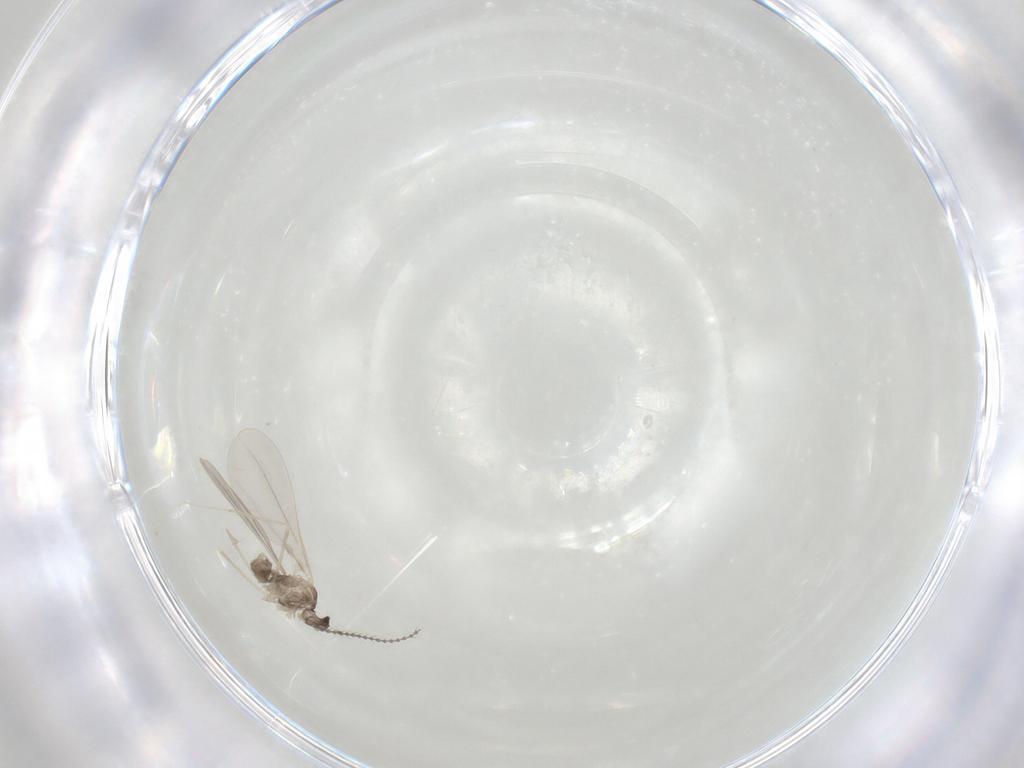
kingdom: Animalia
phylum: Arthropoda
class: Insecta
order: Diptera
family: Cecidomyiidae
